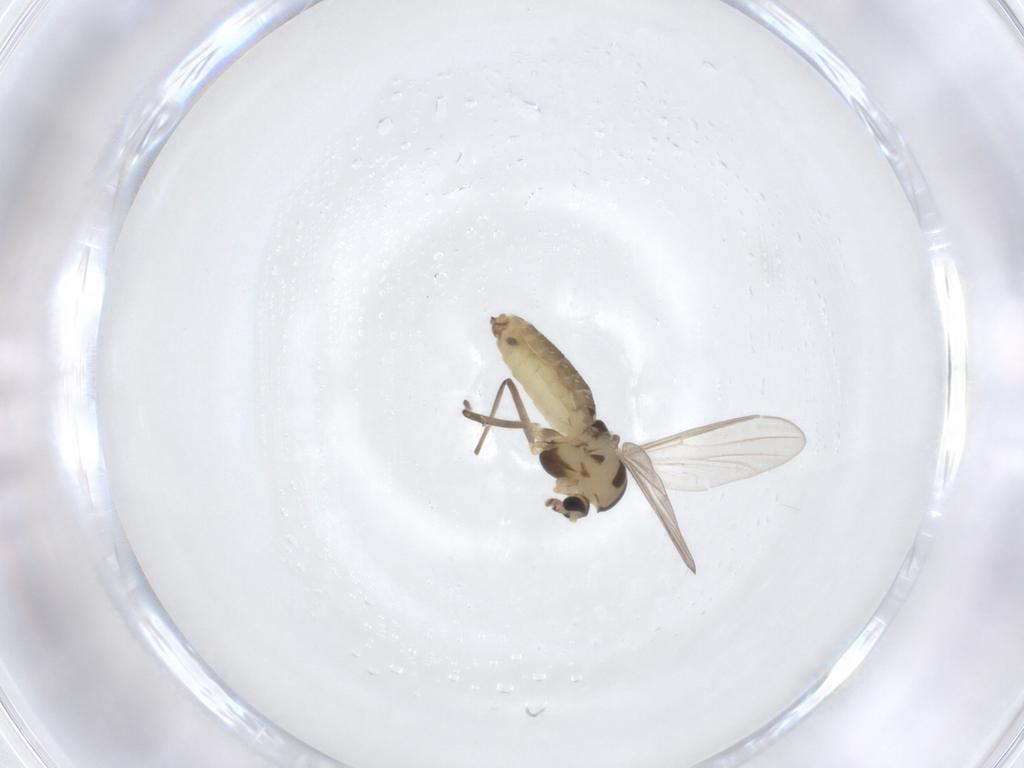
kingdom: Animalia
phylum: Arthropoda
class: Insecta
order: Diptera
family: Chironomidae
